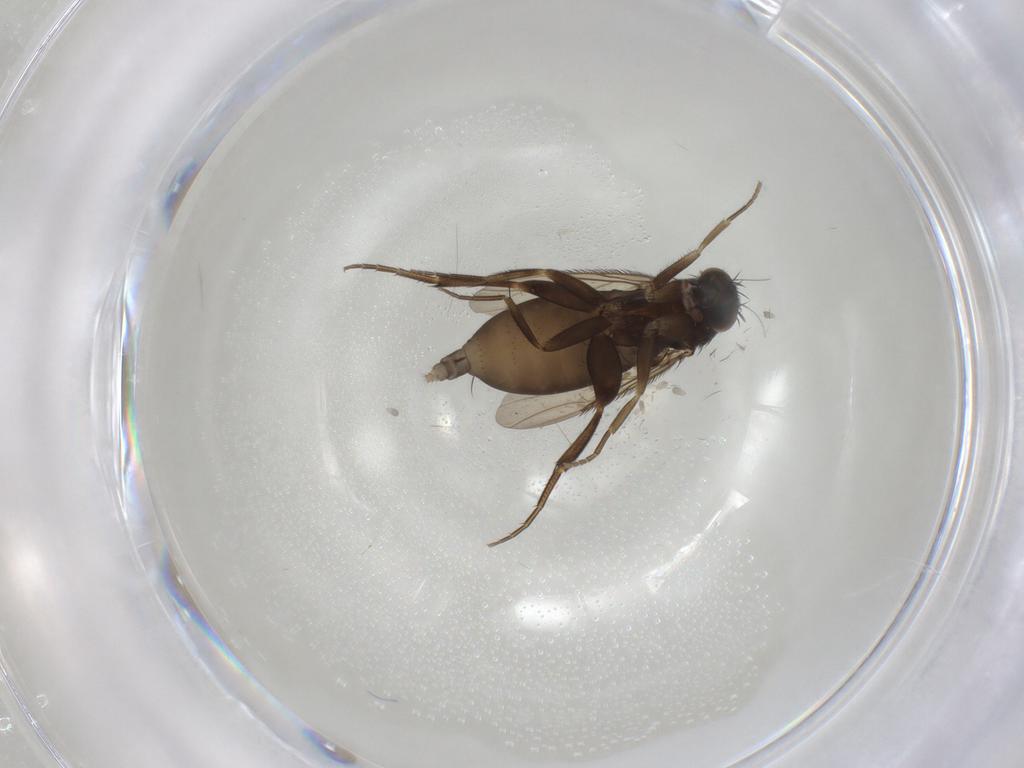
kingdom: Animalia
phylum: Arthropoda
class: Insecta
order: Diptera
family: Phoridae
